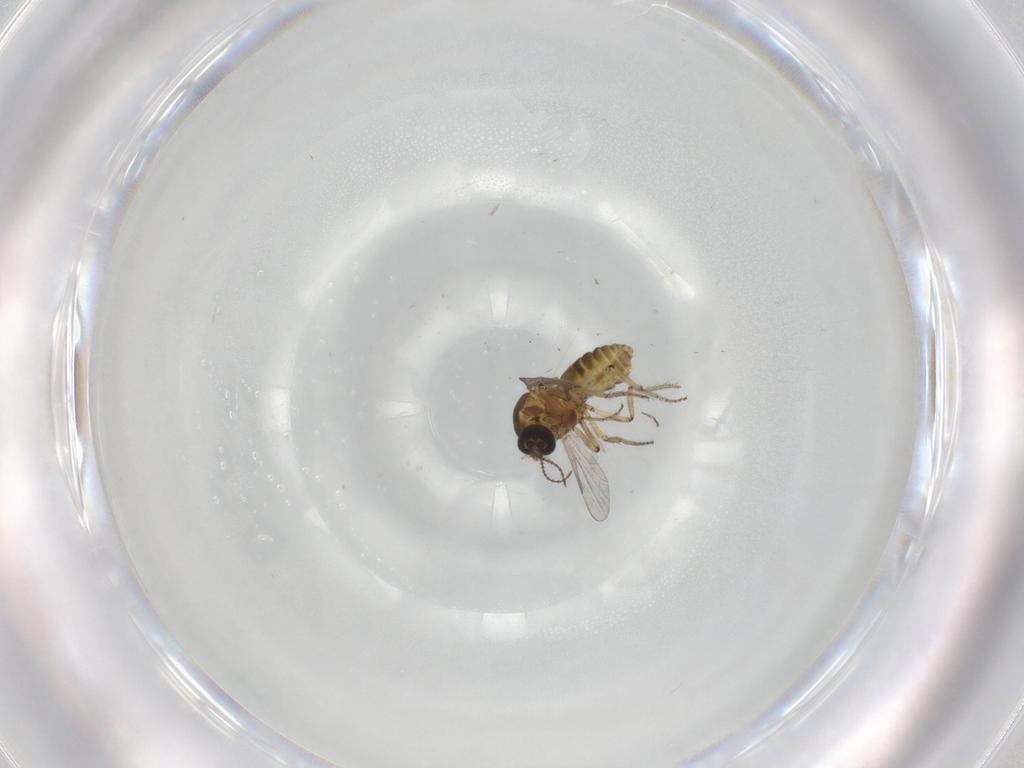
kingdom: Animalia
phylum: Arthropoda
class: Insecta
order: Diptera
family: Ceratopogonidae
